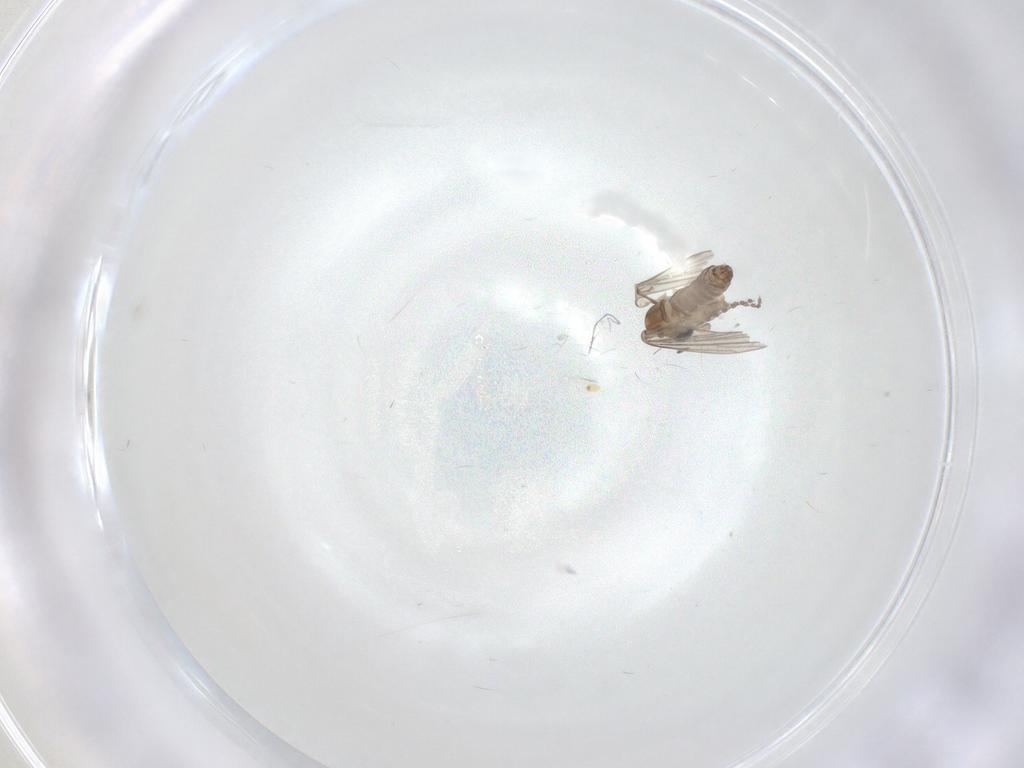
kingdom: Animalia
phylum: Arthropoda
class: Insecta
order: Diptera
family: Psychodidae
